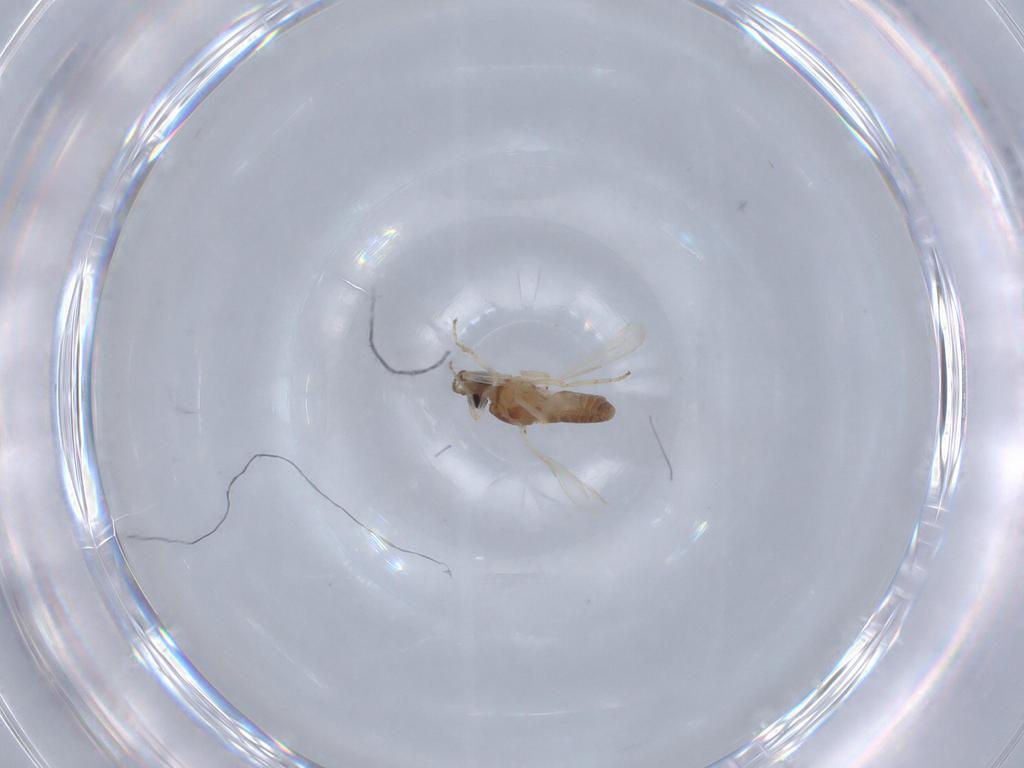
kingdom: Animalia
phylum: Arthropoda
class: Insecta
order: Diptera
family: Ceratopogonidae
